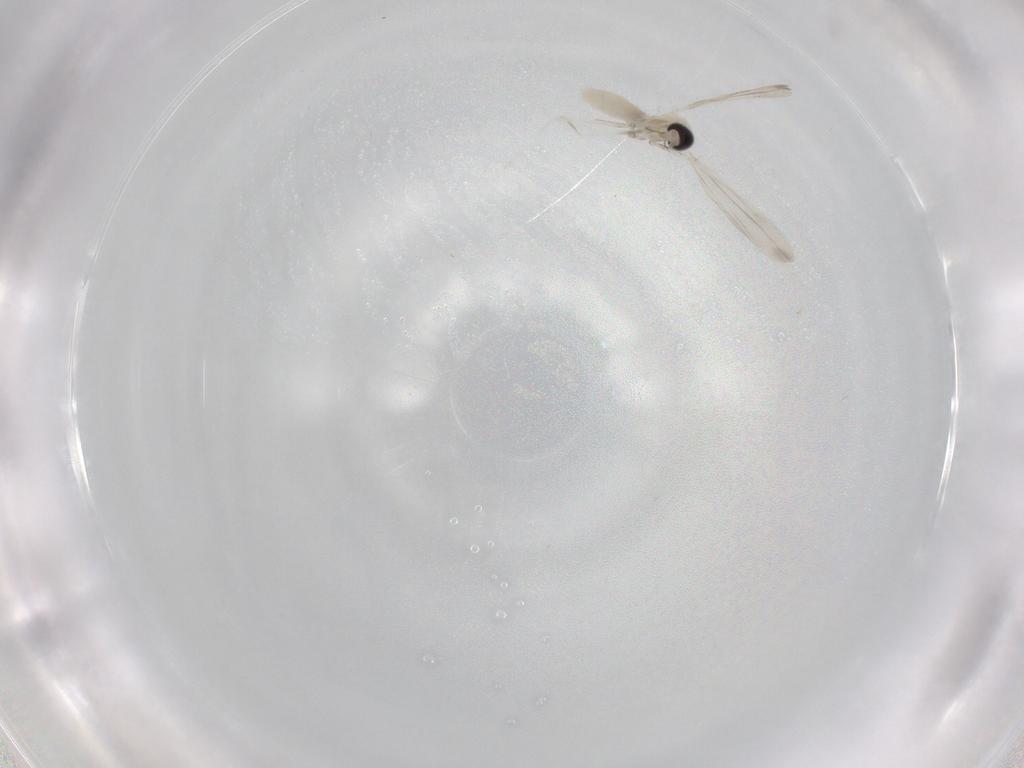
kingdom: Animalia
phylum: Arthropoda
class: Insecta
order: Diptera
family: Cecidomyiidae
